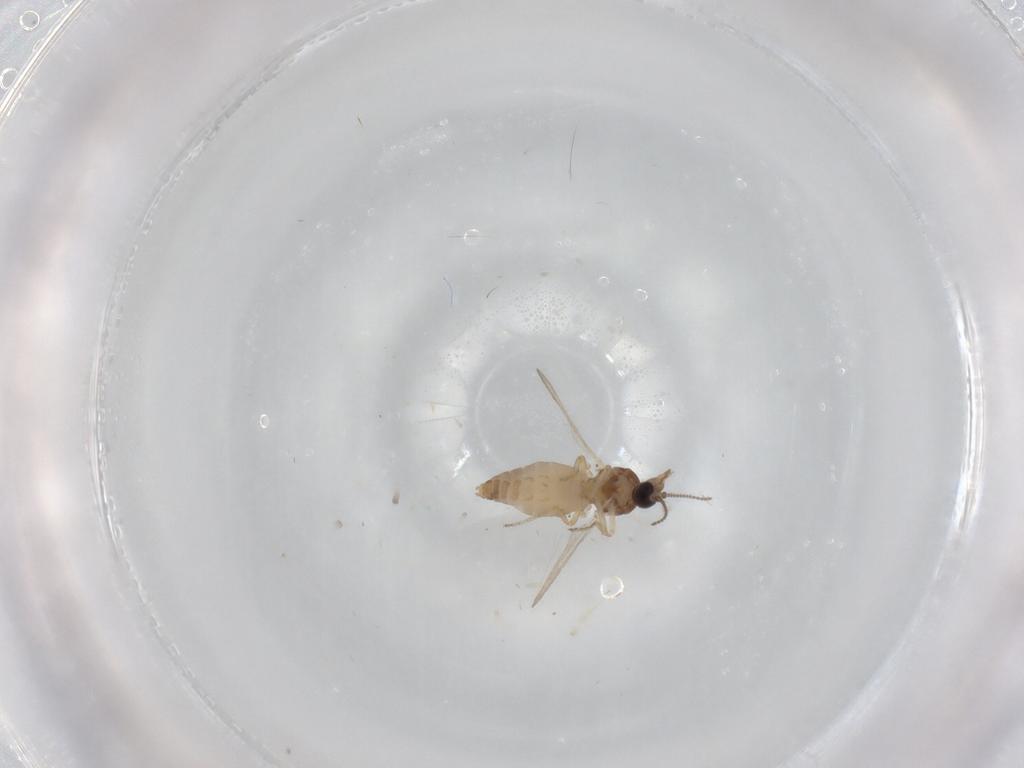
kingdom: Animalia
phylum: Arthropoda
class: Insecta
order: Diptera
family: Ceratopogonidae
